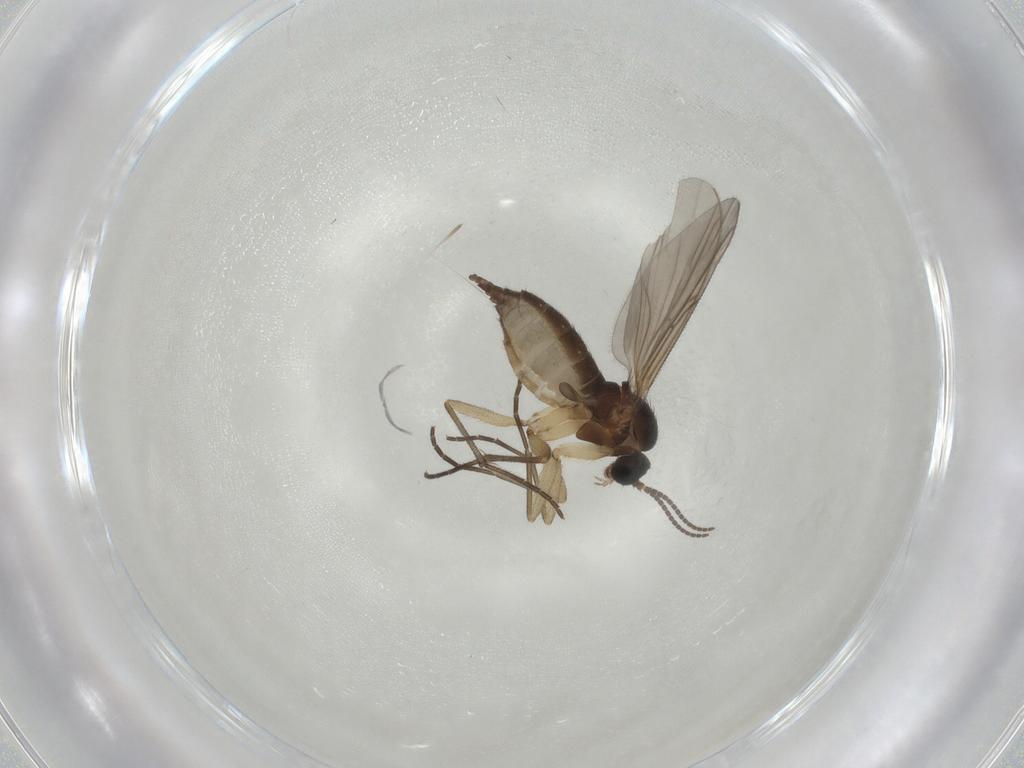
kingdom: Animalia
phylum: Arthropoda
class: Insecta
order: Diptera
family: Sciaridae
